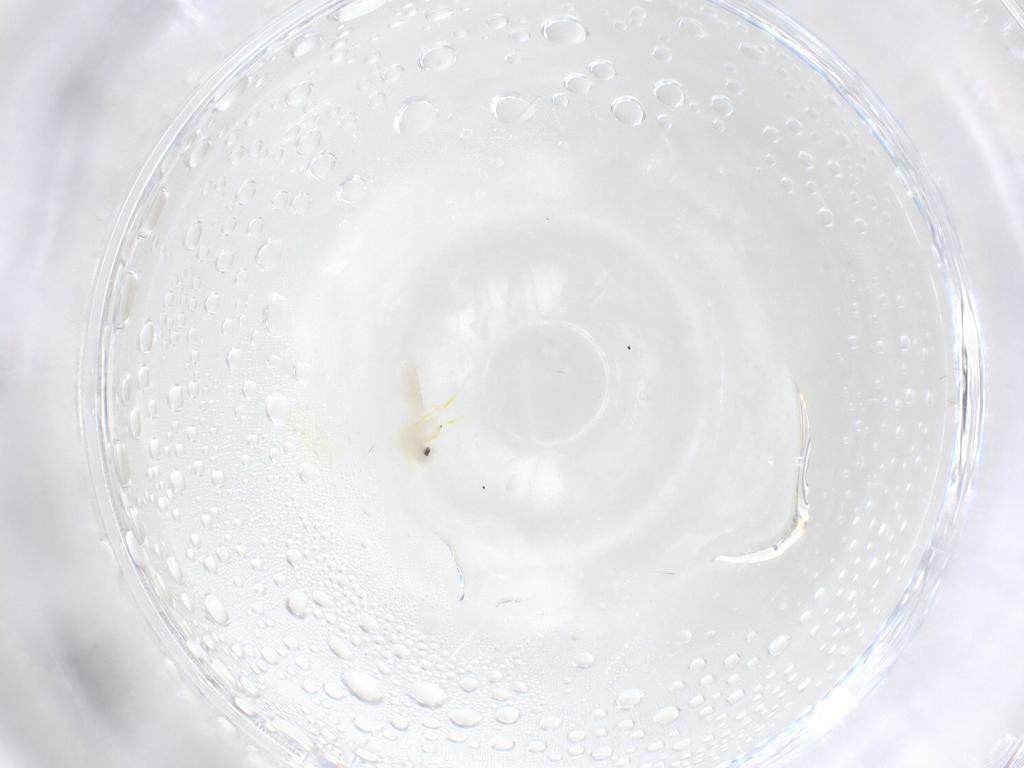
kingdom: Animalia
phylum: Arthropoda
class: Insecta
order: Hemiptera
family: Aleyrodidae
